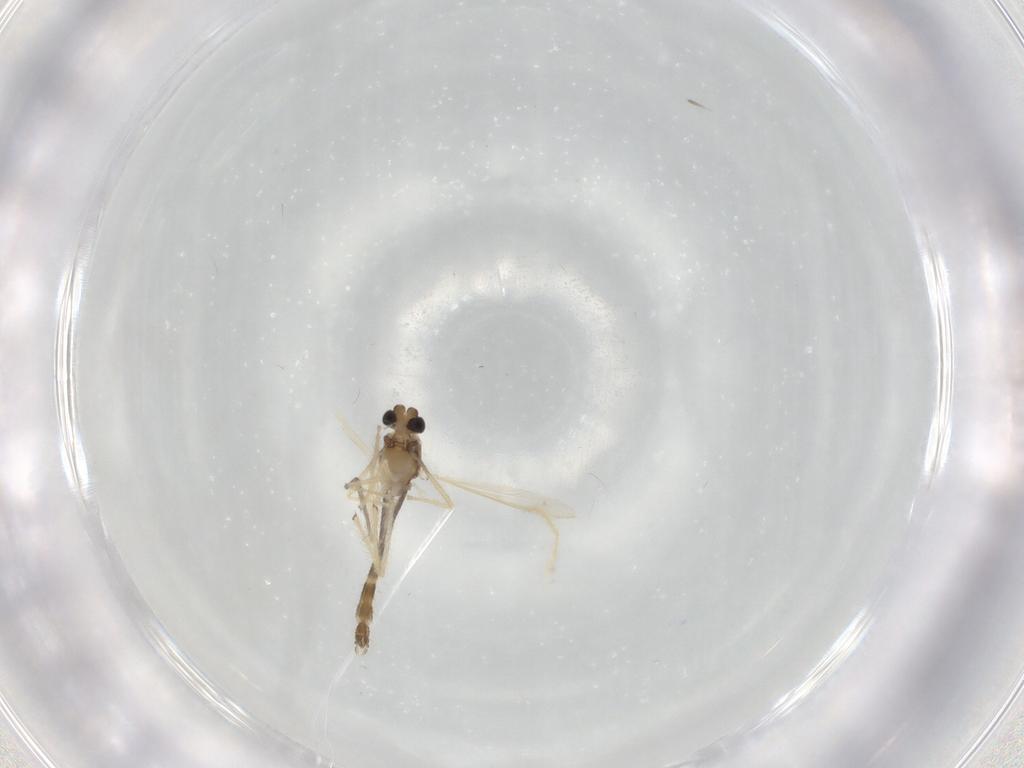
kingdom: Animalia
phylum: Arthropoda
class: Insecta
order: Diptera
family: Chironomidae
